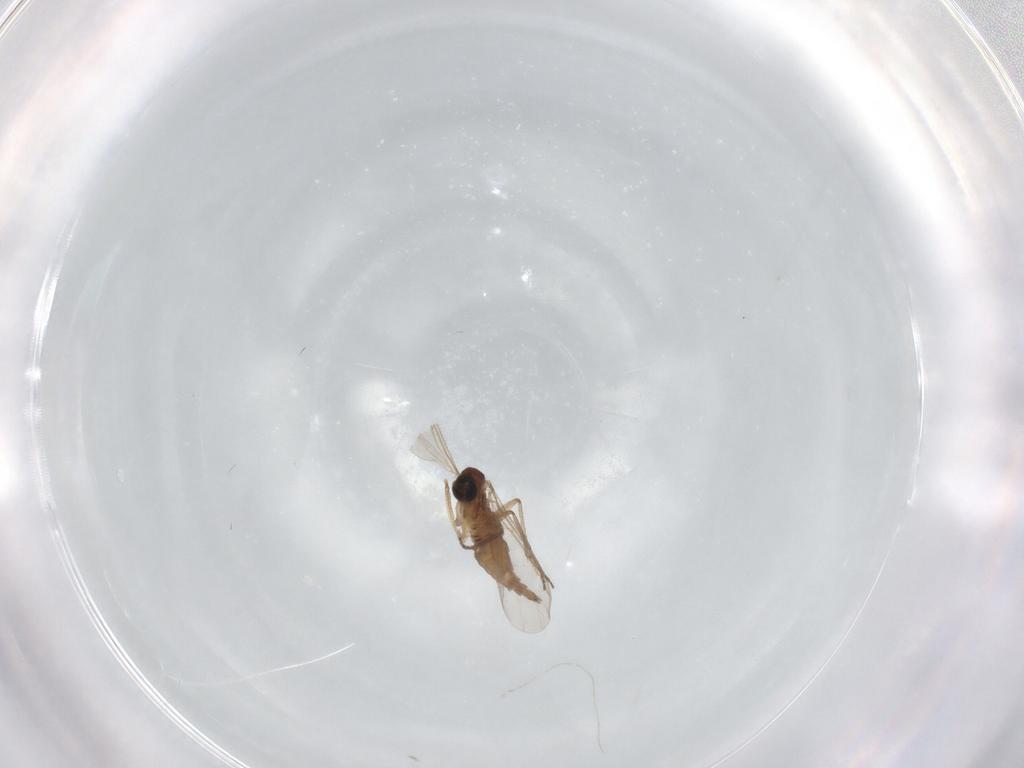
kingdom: Animalia
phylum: Arthropoda
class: Insecta
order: Diptera
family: Sciaridae
